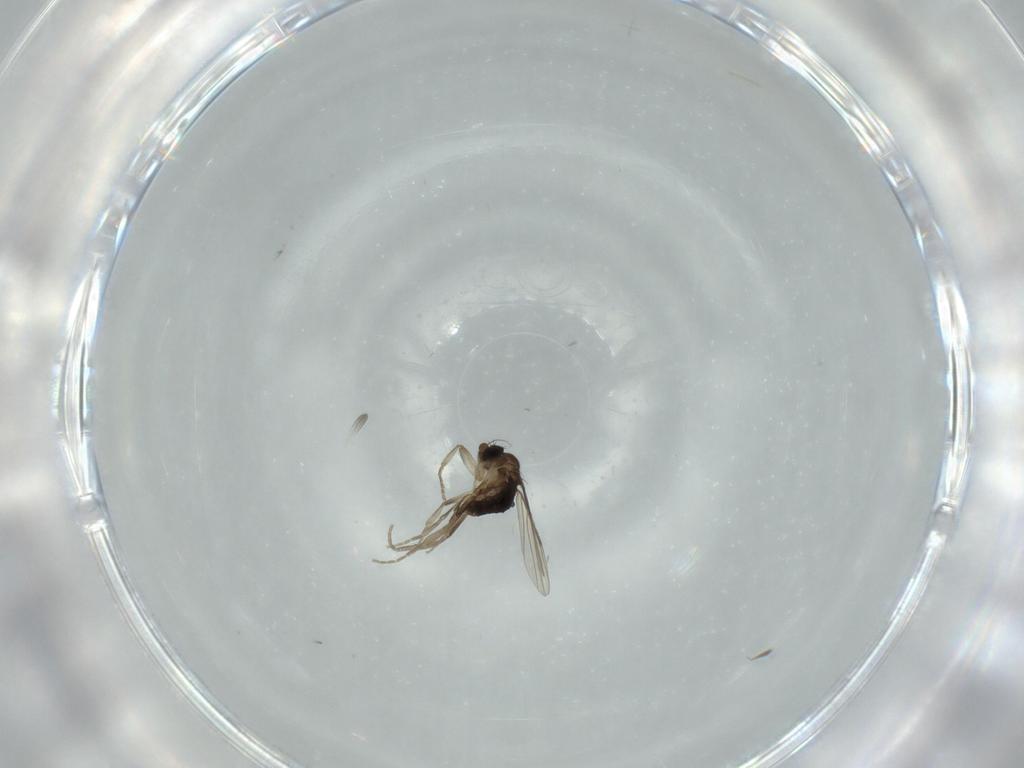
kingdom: Animalia
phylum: Arthropoda
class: Insecta
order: Diptera
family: Phoridae
